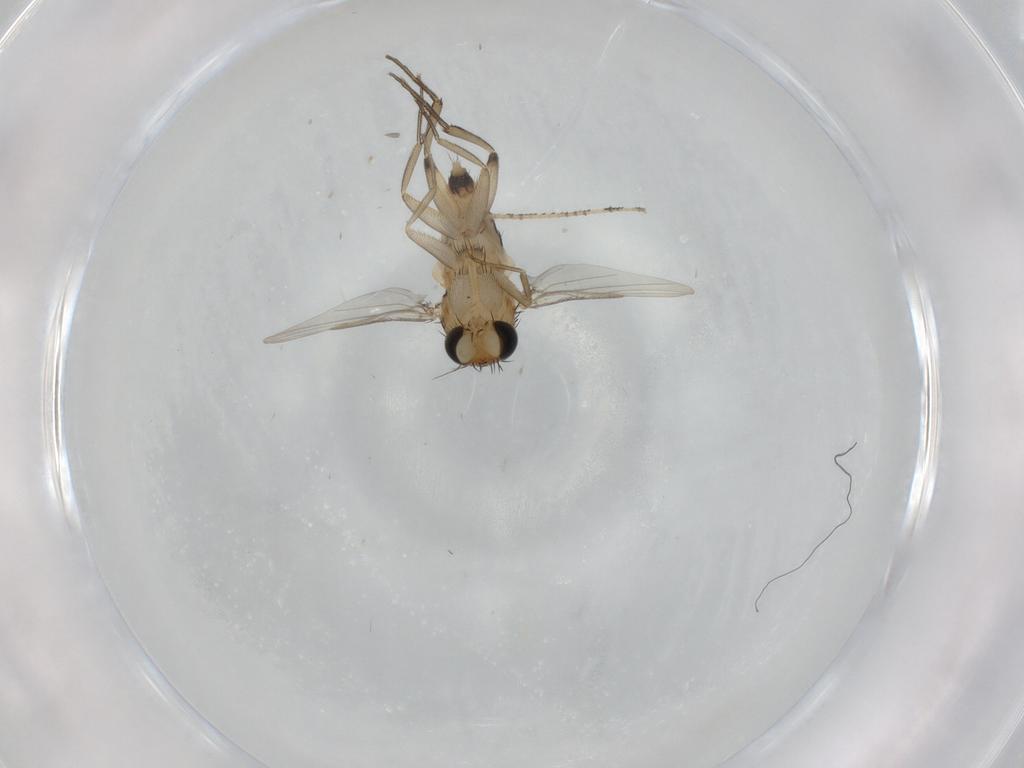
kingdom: Animalia
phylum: Arthropoda
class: Insecta
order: Diptera
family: Phoridae
